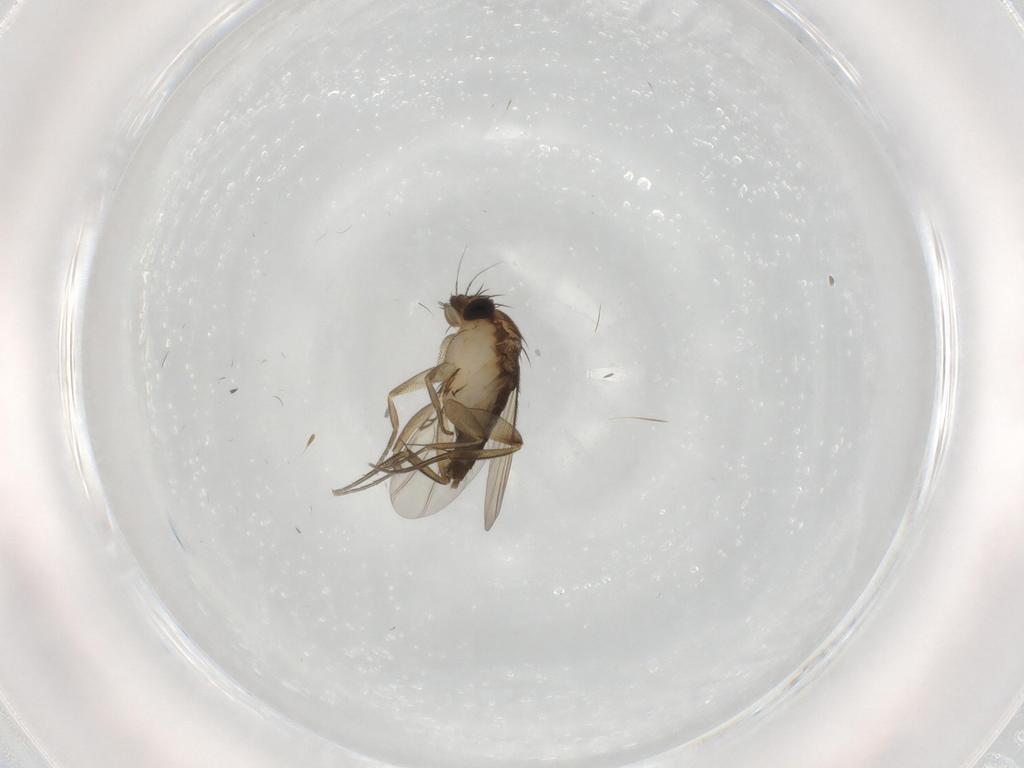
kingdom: Animalia
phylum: Arthropoda
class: Insecta
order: Diptera
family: Phoridae
